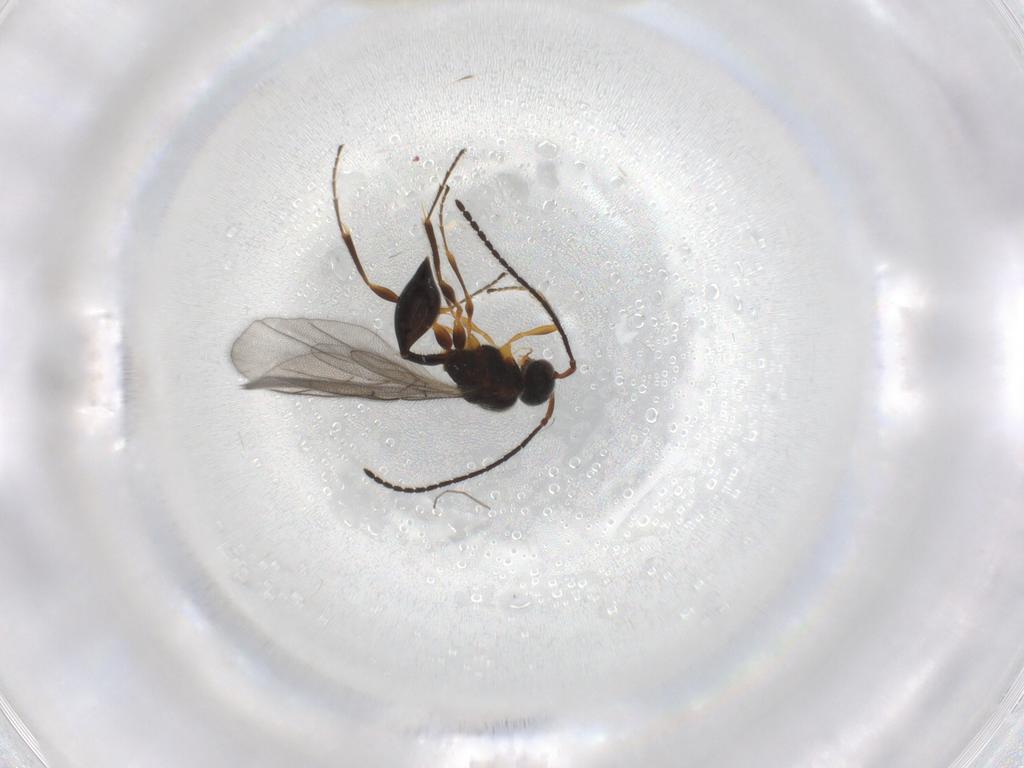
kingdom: Animalia
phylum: Arthropoda
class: Insecta
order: Hymenoptera
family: Diapriidae
